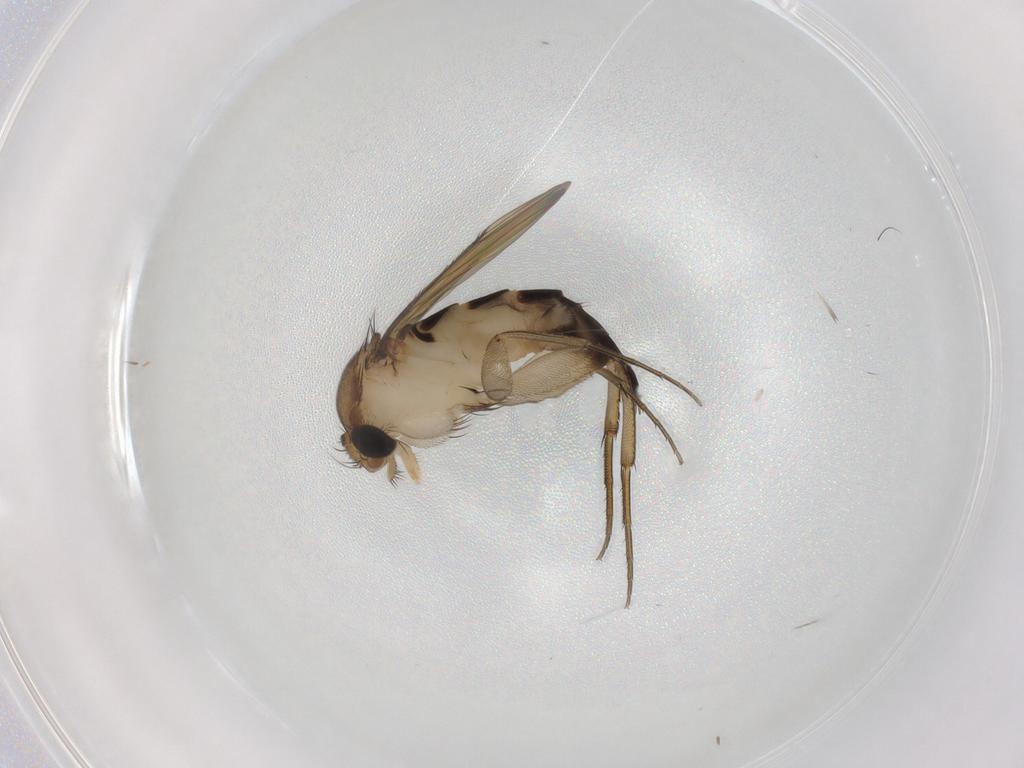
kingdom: Animalia
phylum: Arthropoda
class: Insecta
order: Diptera
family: Phoridae
